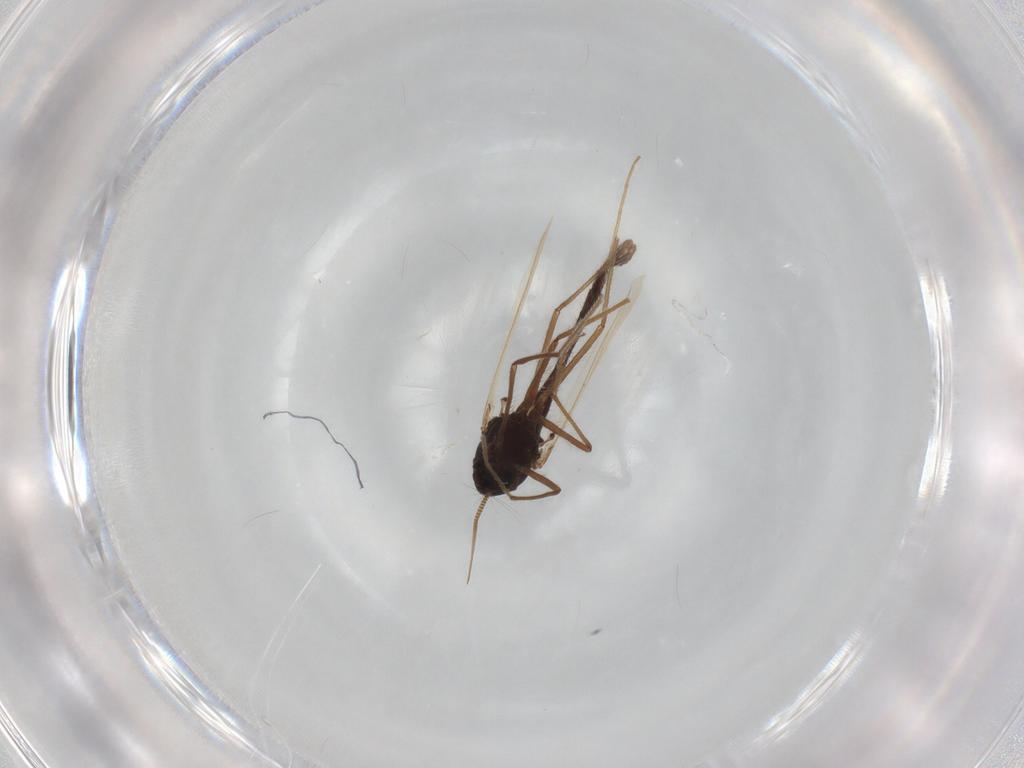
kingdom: Animalia
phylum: Arthropoda
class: Insecta
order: Diptera
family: Chironomidae
